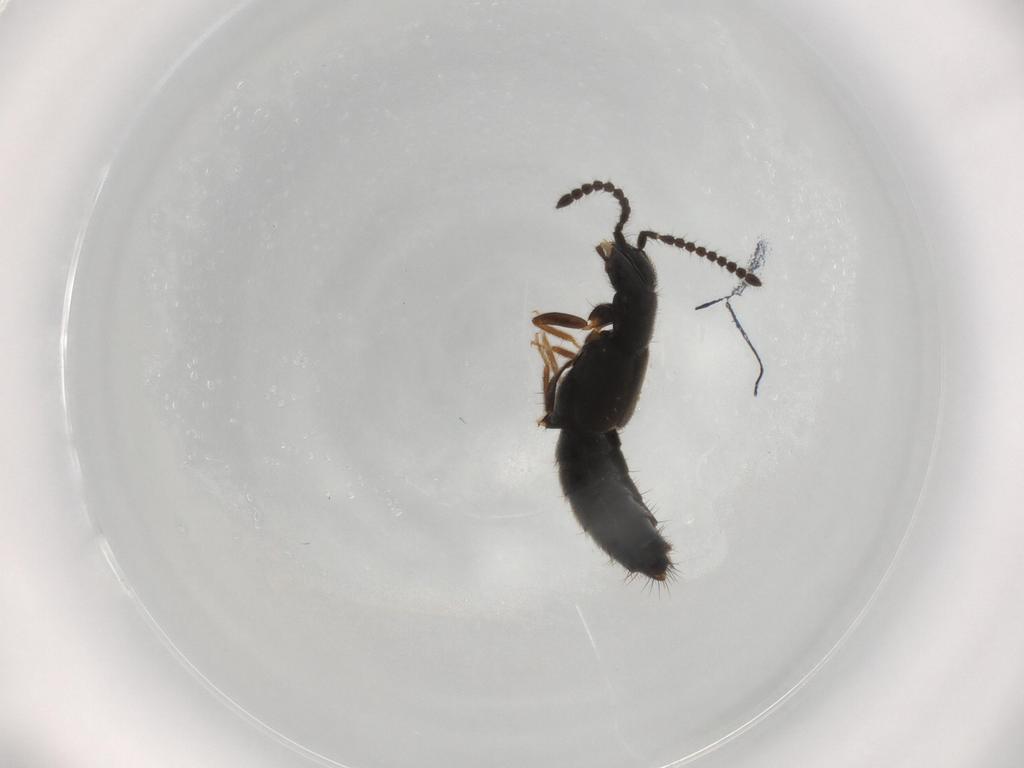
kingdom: Animalia
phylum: Arthropoda
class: Insecta
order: Coleoptera
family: Staphylinidae
